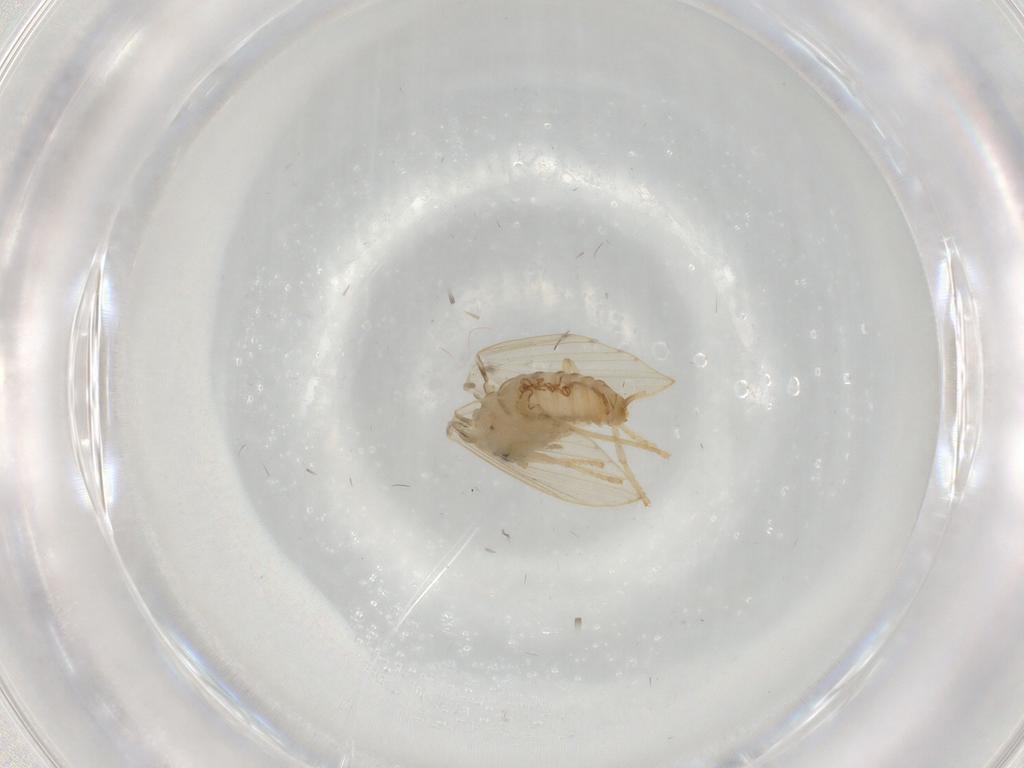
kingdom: Animalia
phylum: Arthropoda
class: Insecta
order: Diptera
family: Psychodidae
